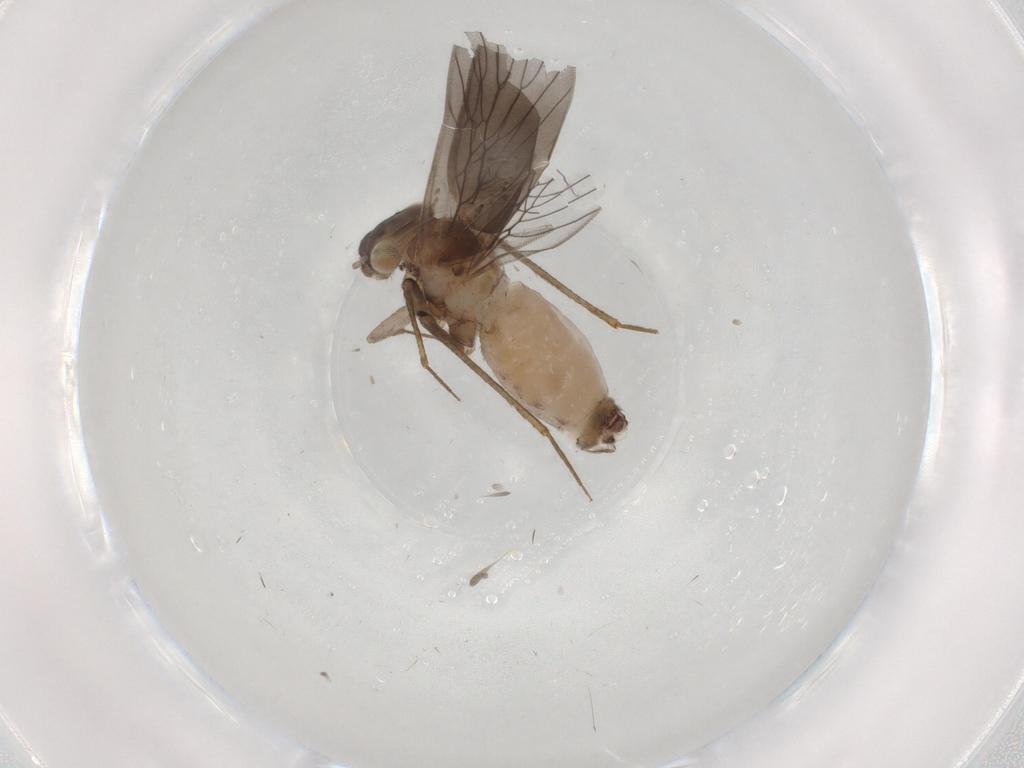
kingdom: Animalia
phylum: Arthropoda
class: Insecta
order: Psocodea
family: Lepidopsocidae
